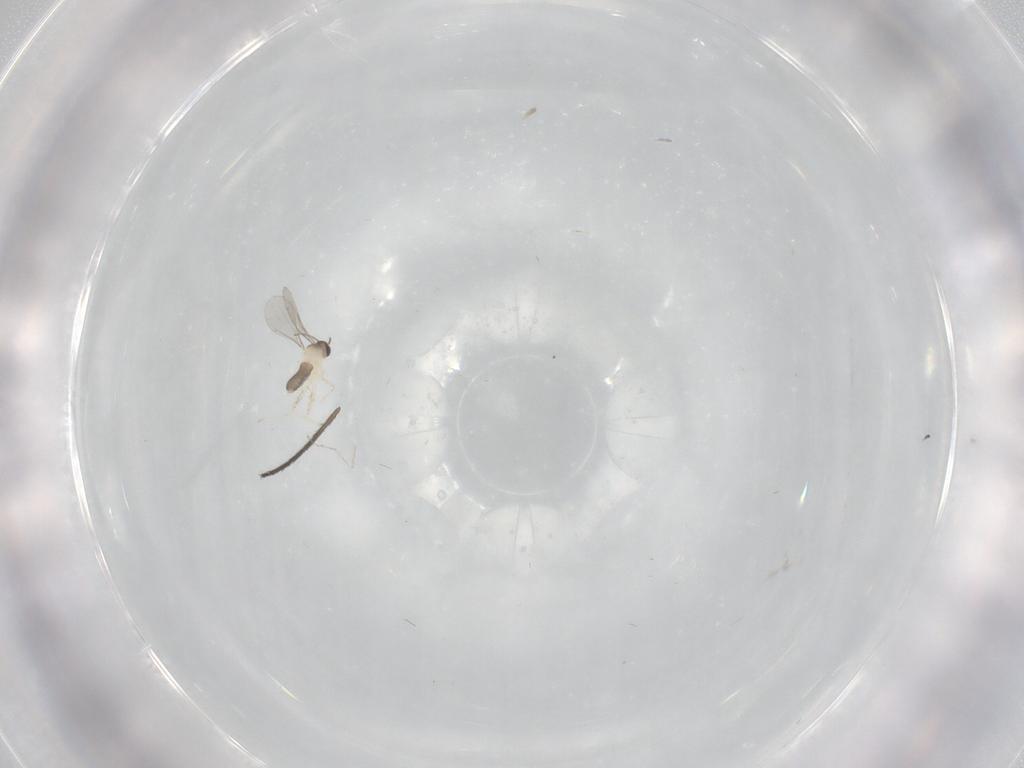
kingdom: Animalia
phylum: Arthropoda
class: Insecta
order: Diptera
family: Cecidomyiidae
